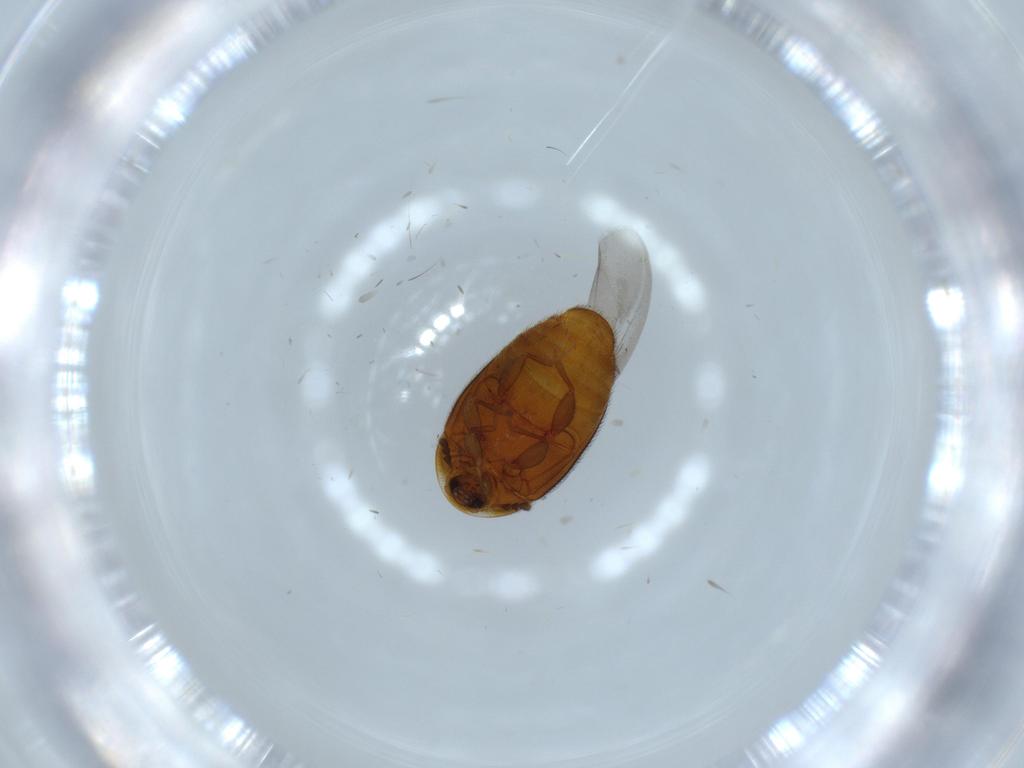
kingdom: Animalia
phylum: Arthropoda
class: Insecta
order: Coleoptera
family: Corylophidae
